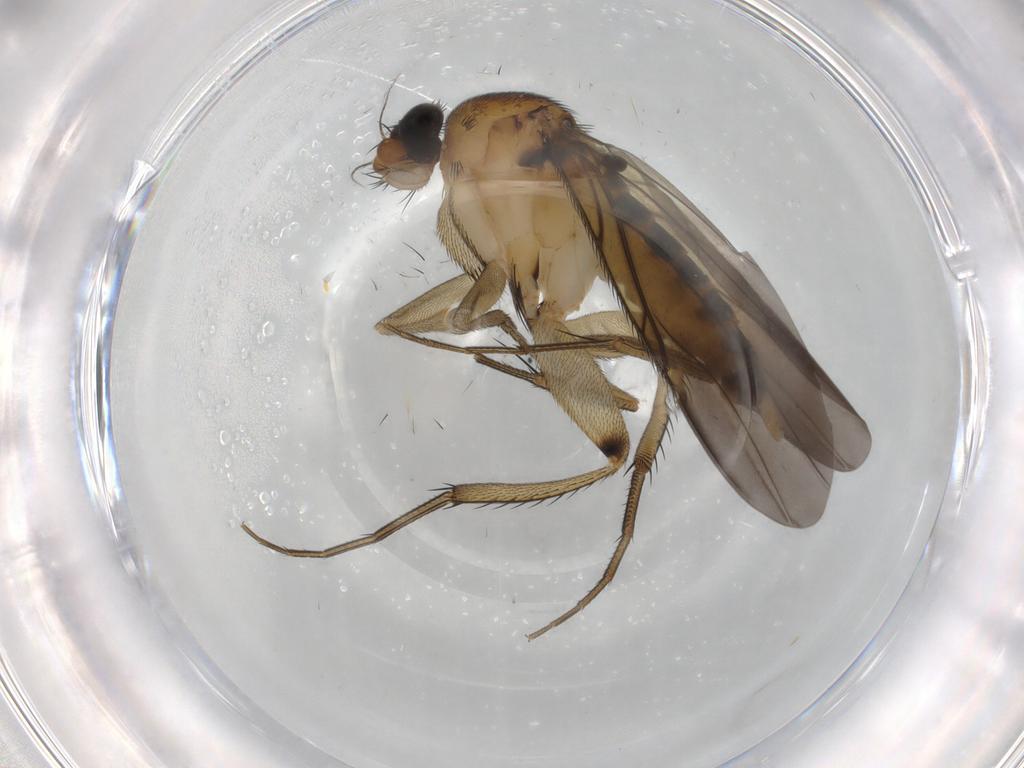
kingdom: Animalia
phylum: Arthropoda
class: Insecta
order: Diptera
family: Phoridae
